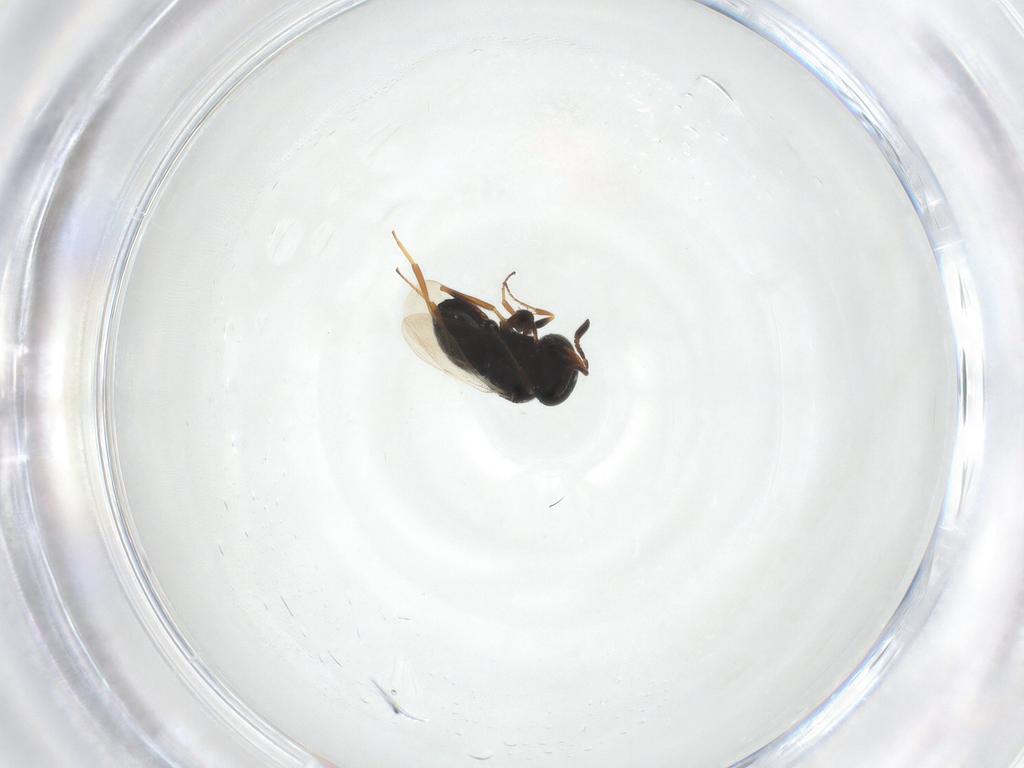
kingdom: Animalia
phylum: Arthropoda
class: Insecta
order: Hymenoptera
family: Scelionidae
